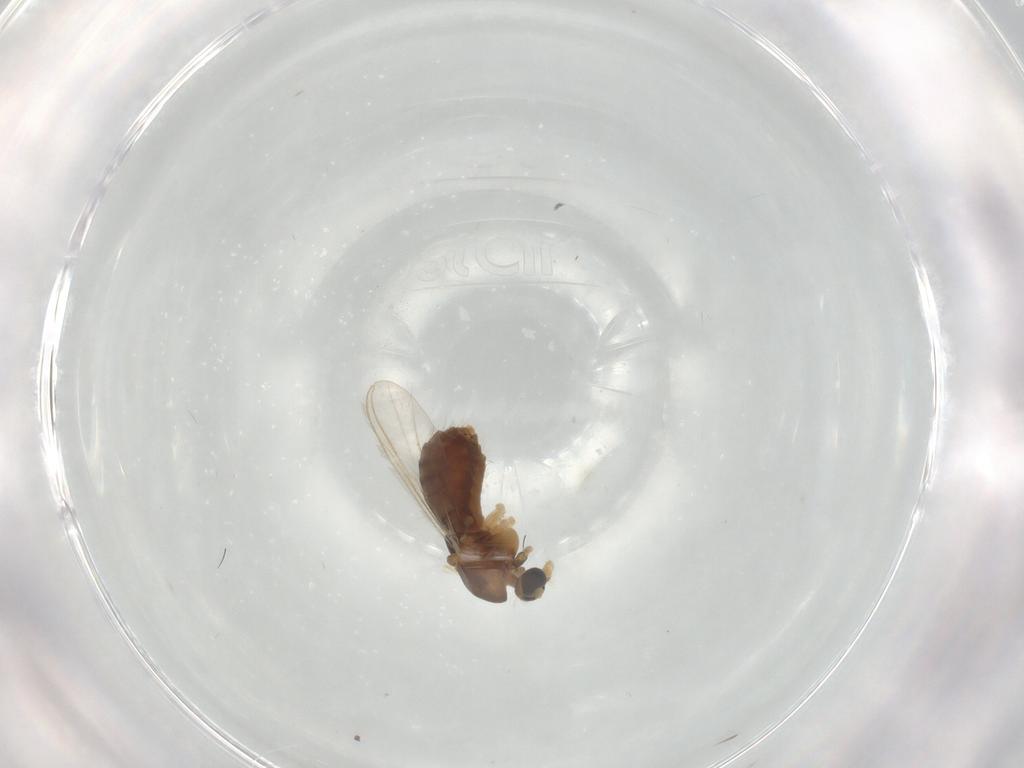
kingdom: Animalia
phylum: Arthropoda
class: Insecta
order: Diptera
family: Chironomidae
